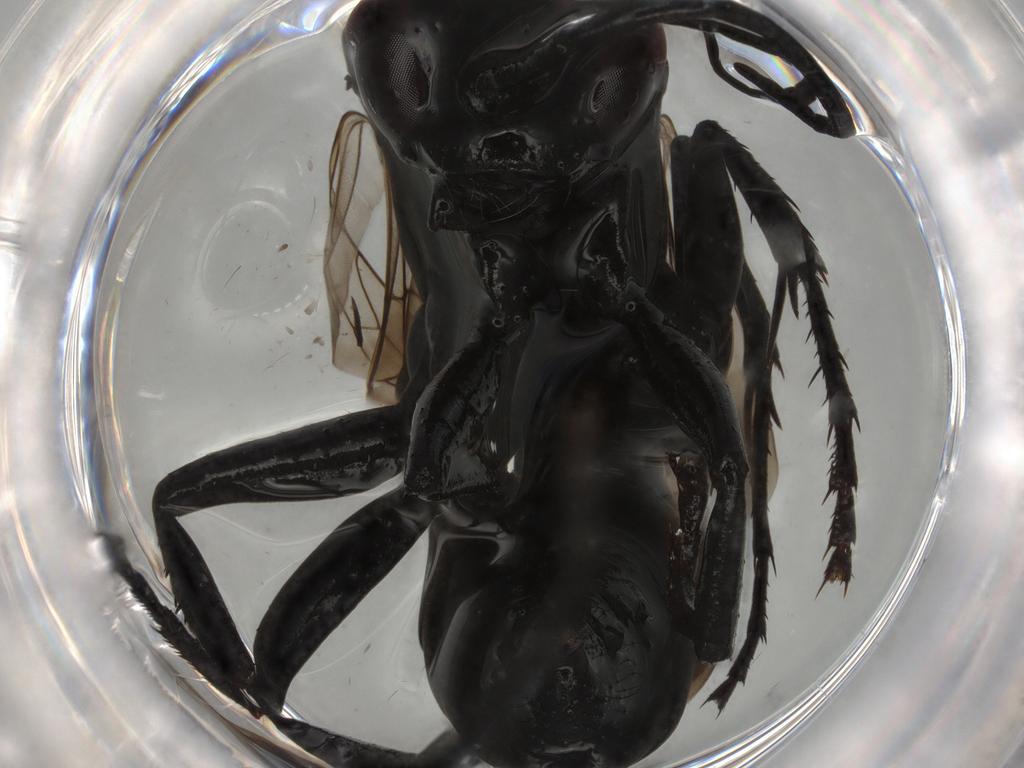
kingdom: Animalia
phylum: Arthropoda
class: Insecta
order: Hymenoptera
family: Pompilidae
